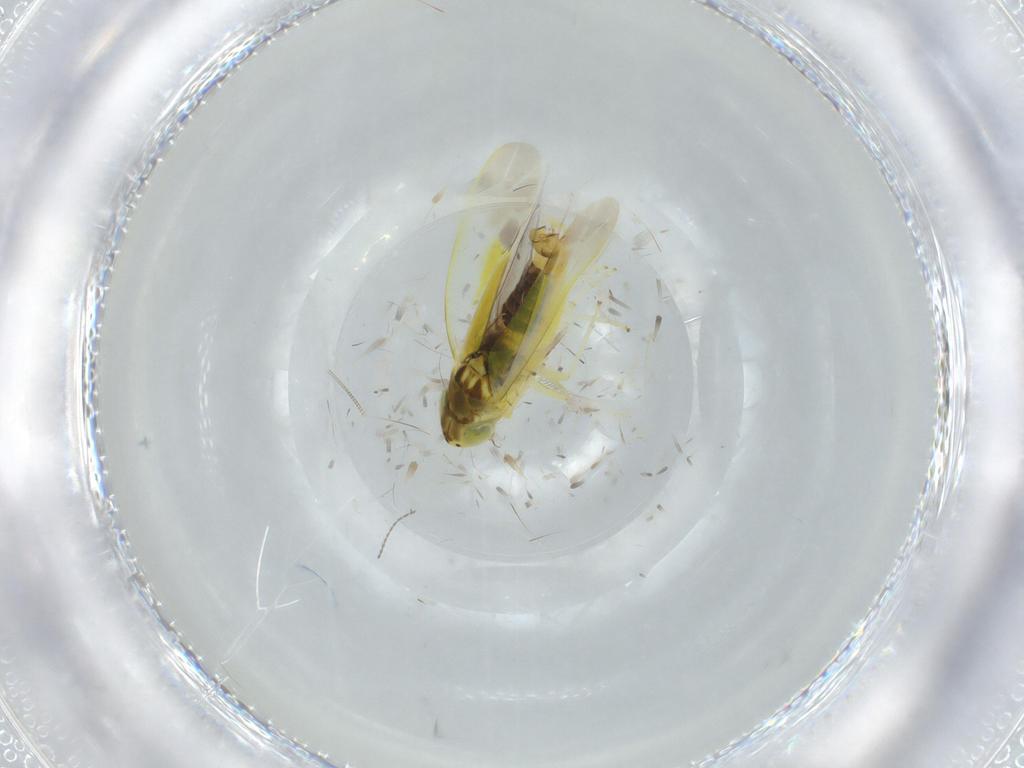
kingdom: Animalia
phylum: Arthropoda
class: Insecta
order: Hemiptera
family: Cicadellidae
